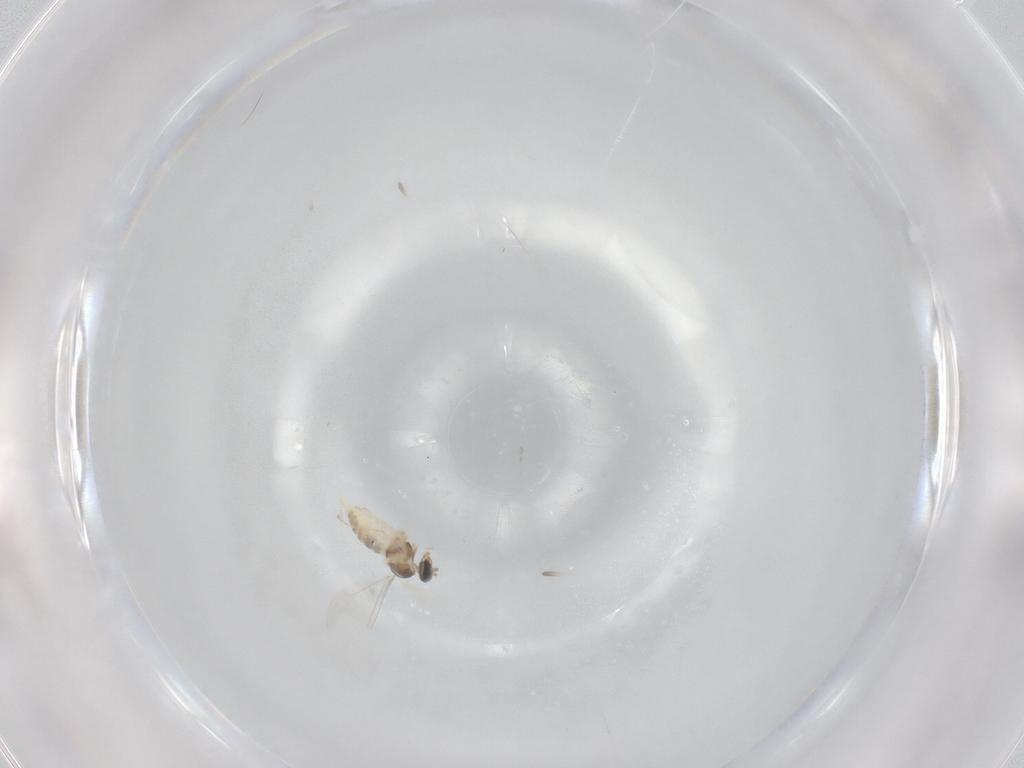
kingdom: Animalia
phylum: Arthropoda
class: Insecta
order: Diptera
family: Cecidomyiidae
